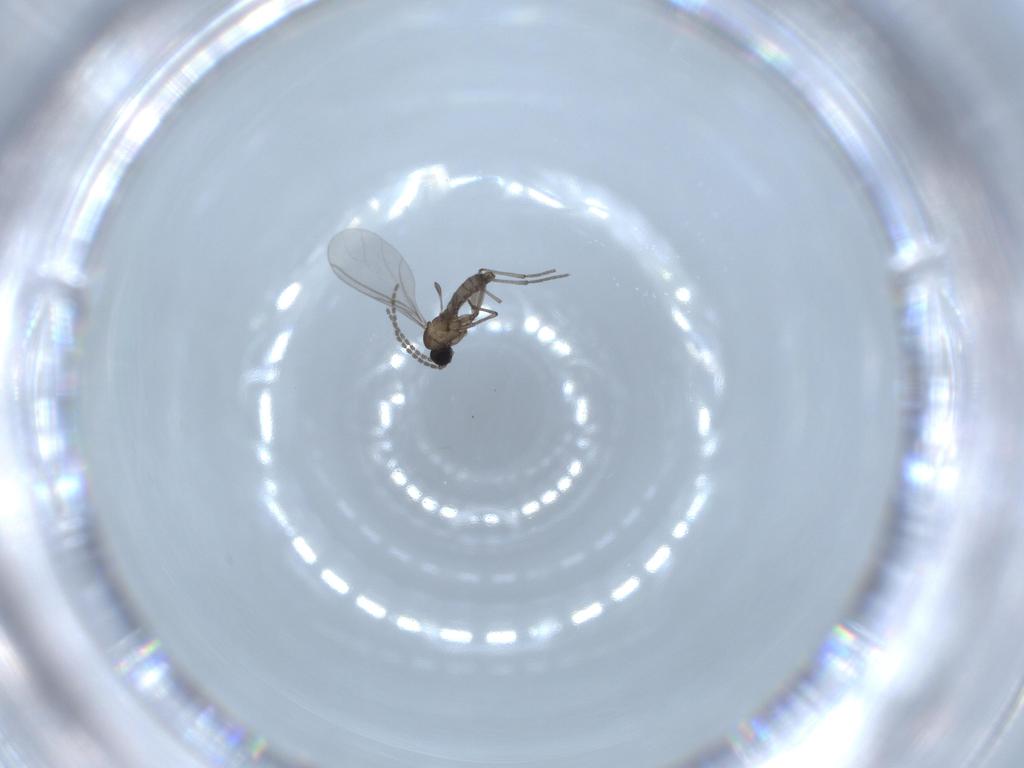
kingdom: Animalia
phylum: Arthropoda
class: Insecta
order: Diptera
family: Sciaridae
